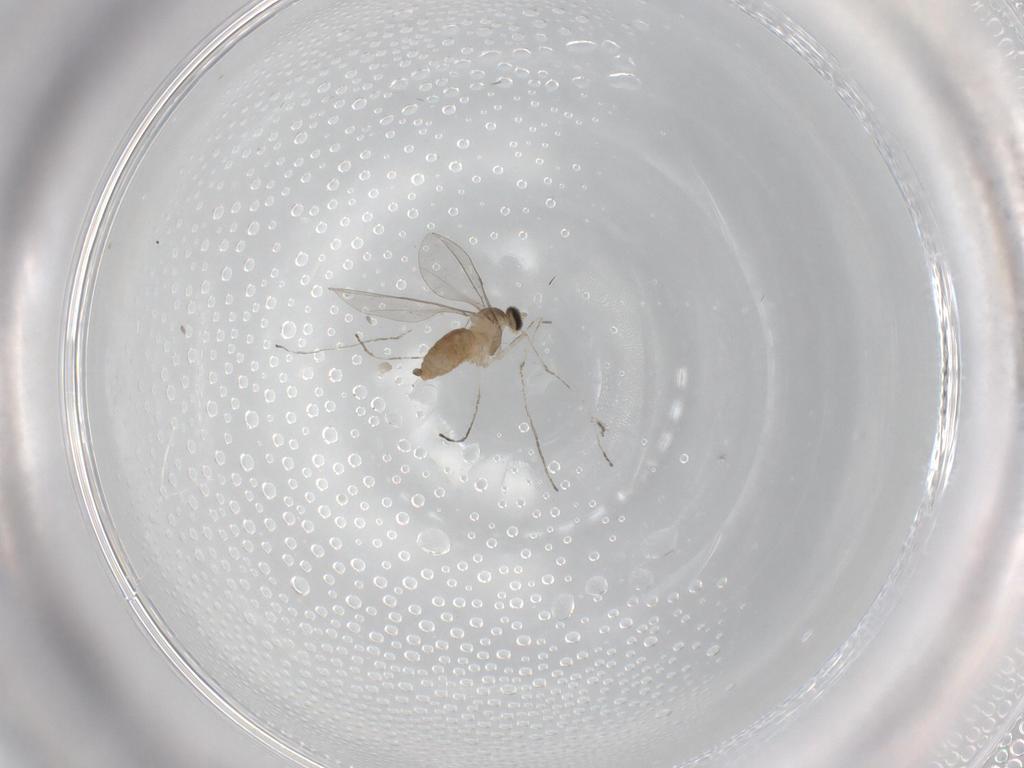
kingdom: Animalia
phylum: Arthropoda
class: Insecta
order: Diptera
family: Cecidomyiidae
